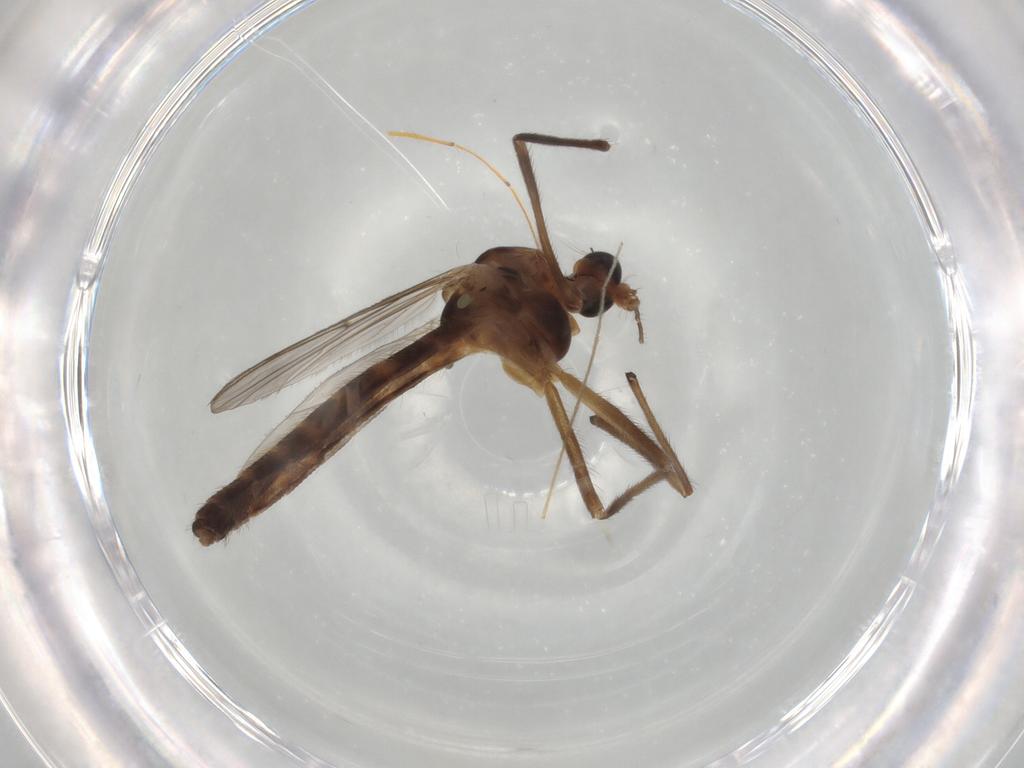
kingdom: Animalia
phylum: Arthropoda
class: Insecta
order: Diptera
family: Chironomidae
